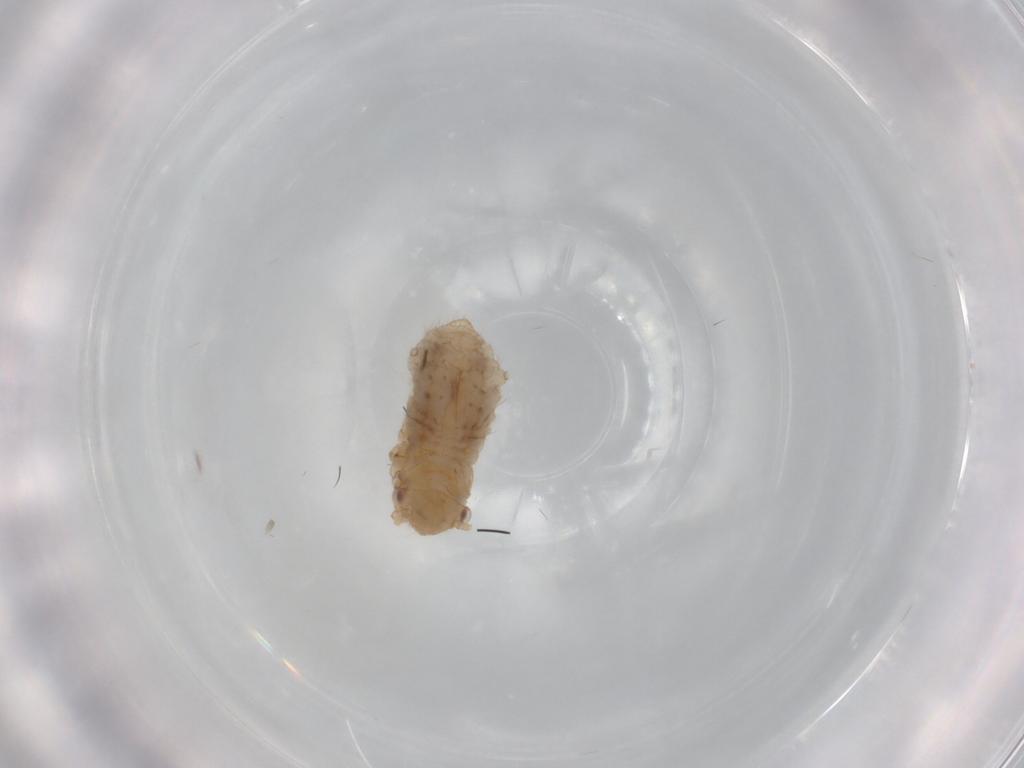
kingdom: Animalia
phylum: Arthropoda
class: Insecta
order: Hemiptera
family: Aphididae
